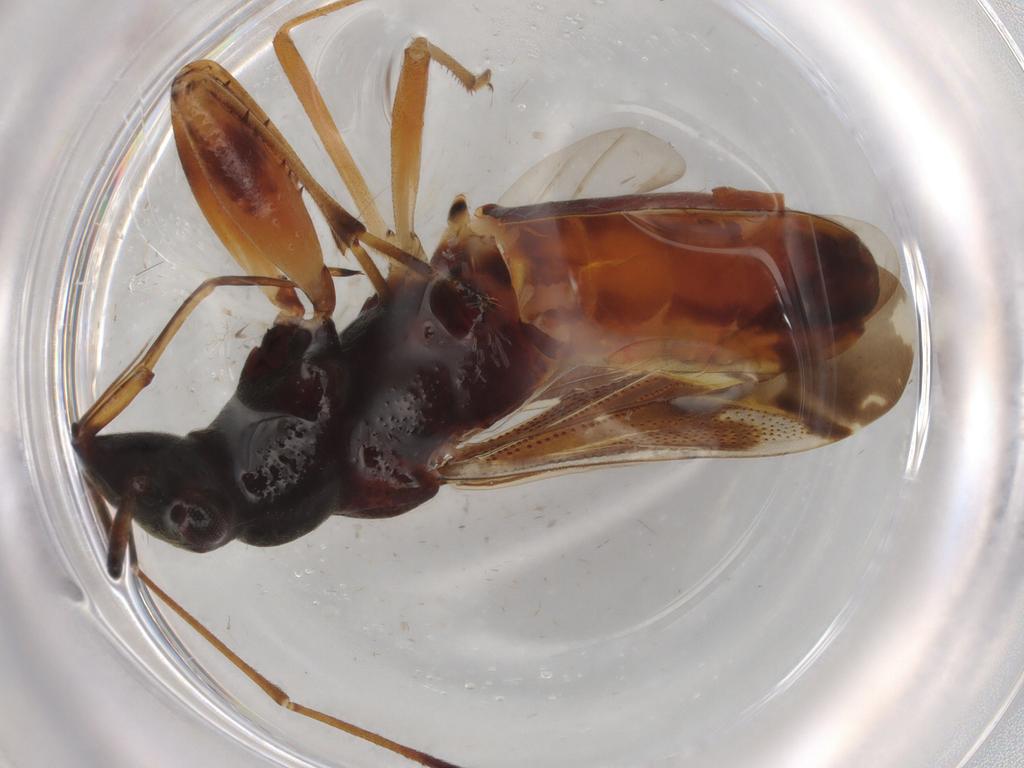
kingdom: Animalia
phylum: Arthropoda
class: Insecta
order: Hemiptera
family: Rhyparochromidae
